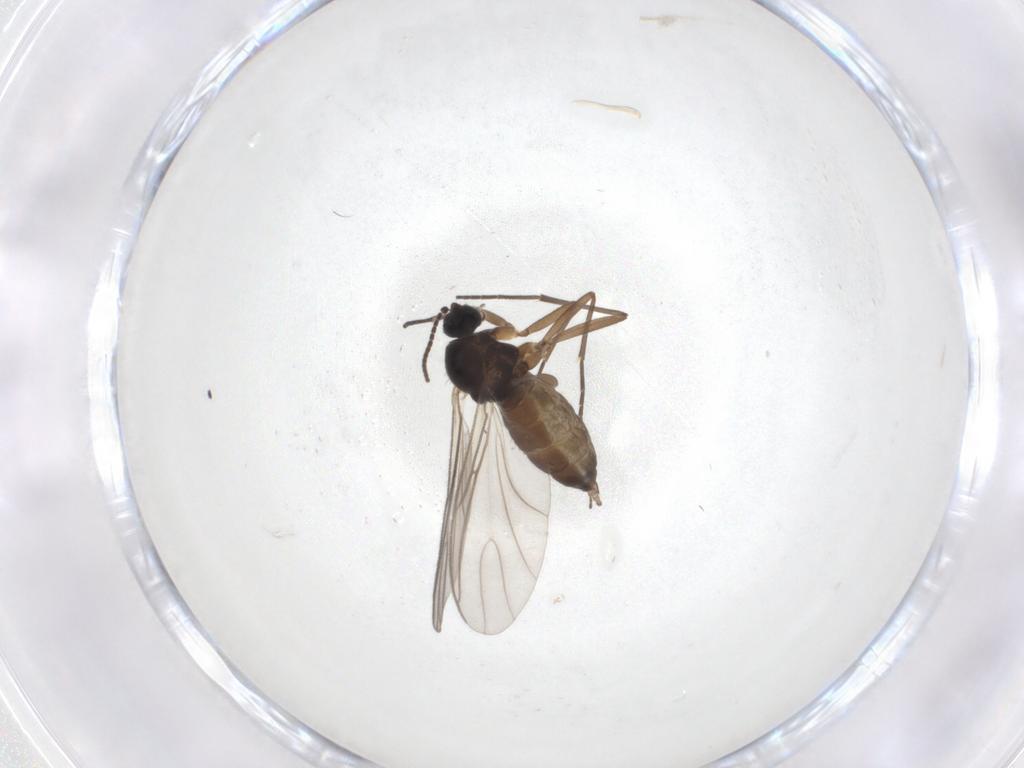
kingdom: Animalia
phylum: Arthropoda
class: Insecta
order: Diptera
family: Sciaridae
